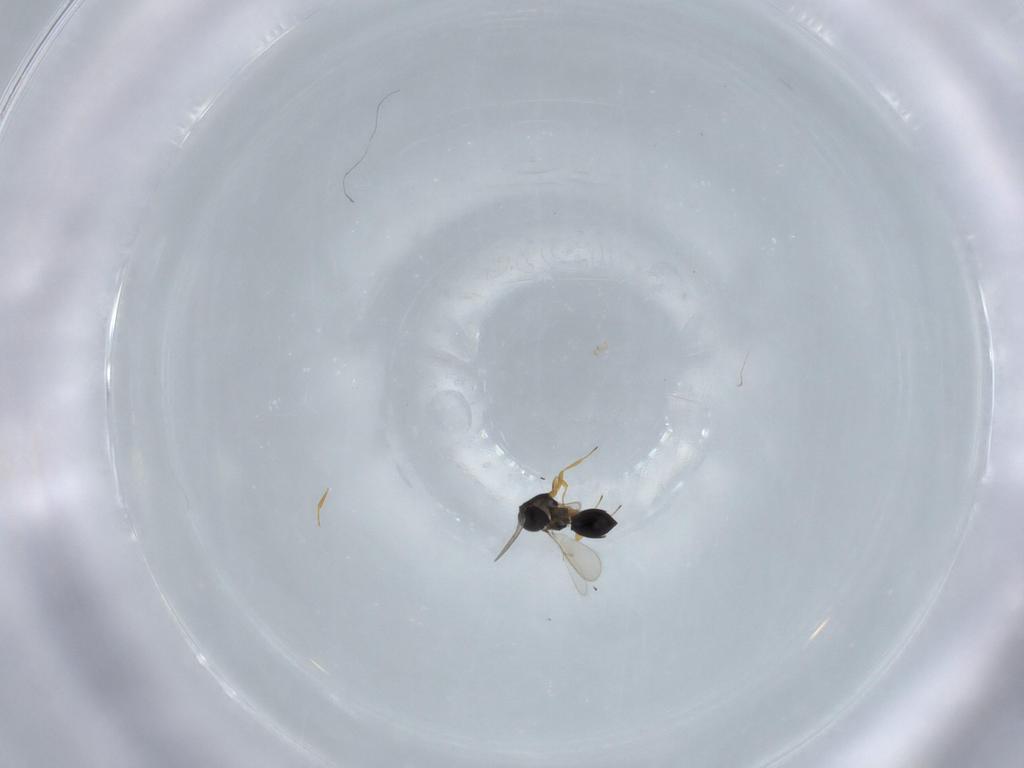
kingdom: Animalia
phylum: Arthropoda
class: Insecta
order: Hymenoptera
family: Scelionidae
